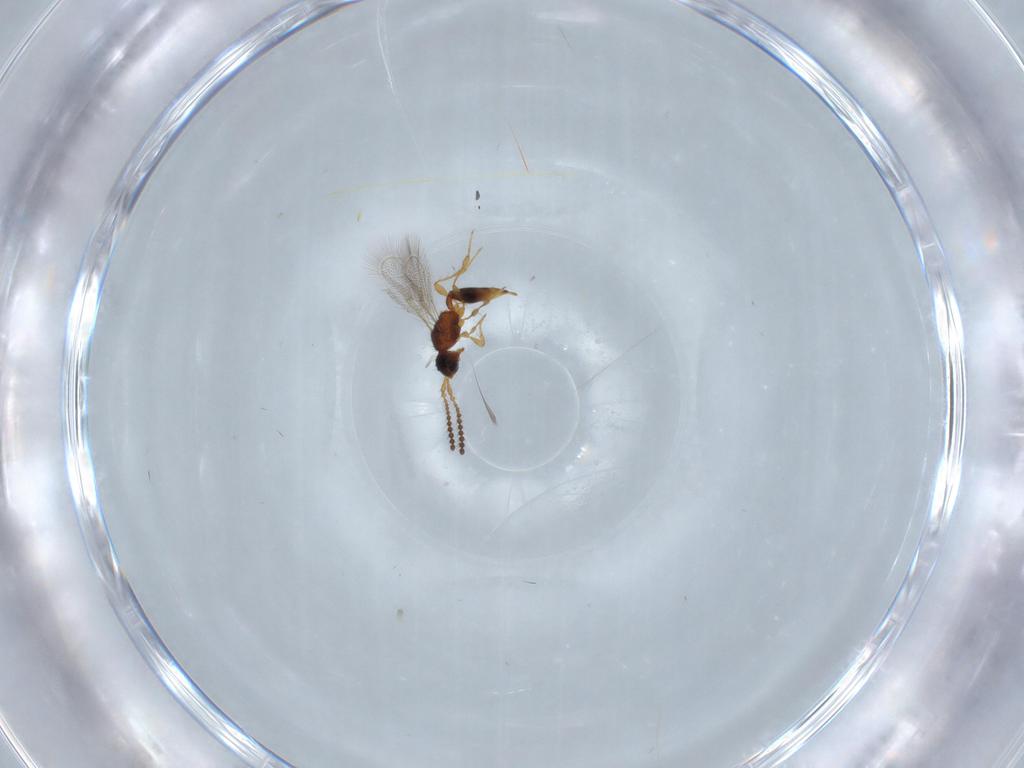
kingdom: Animalia
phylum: Arthropoda
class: Insecta
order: Hymenoptera
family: Diapriidae
